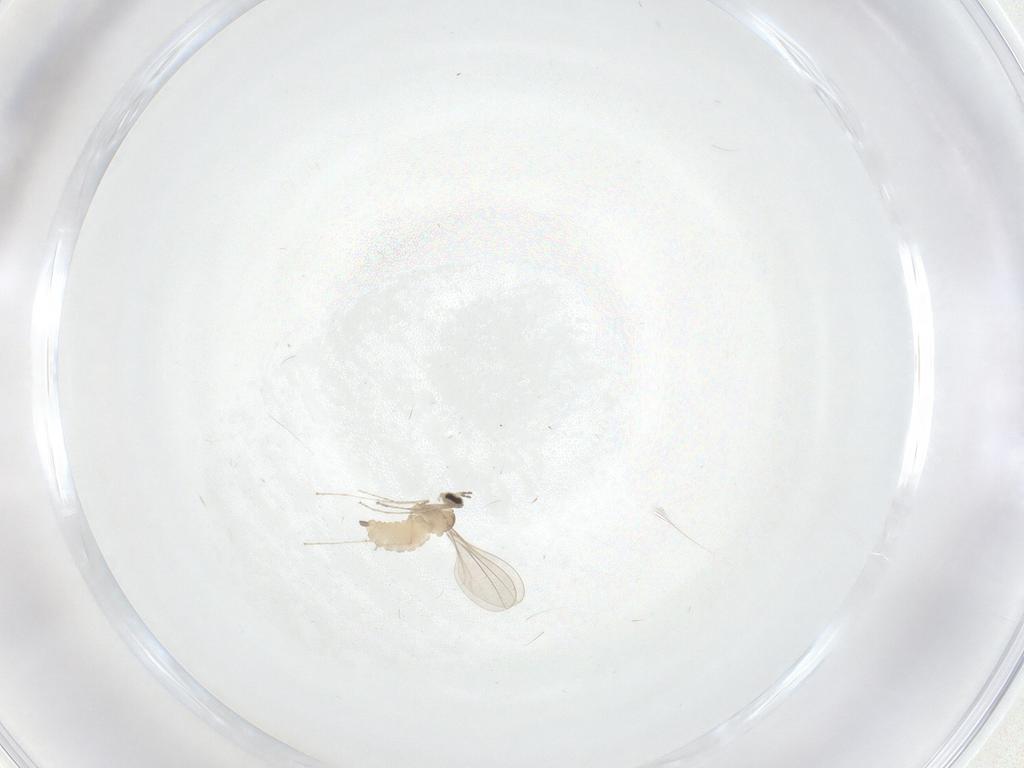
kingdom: Animalia
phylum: Arthropoda
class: Insecta
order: Diptera
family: Cecidomyiidae
